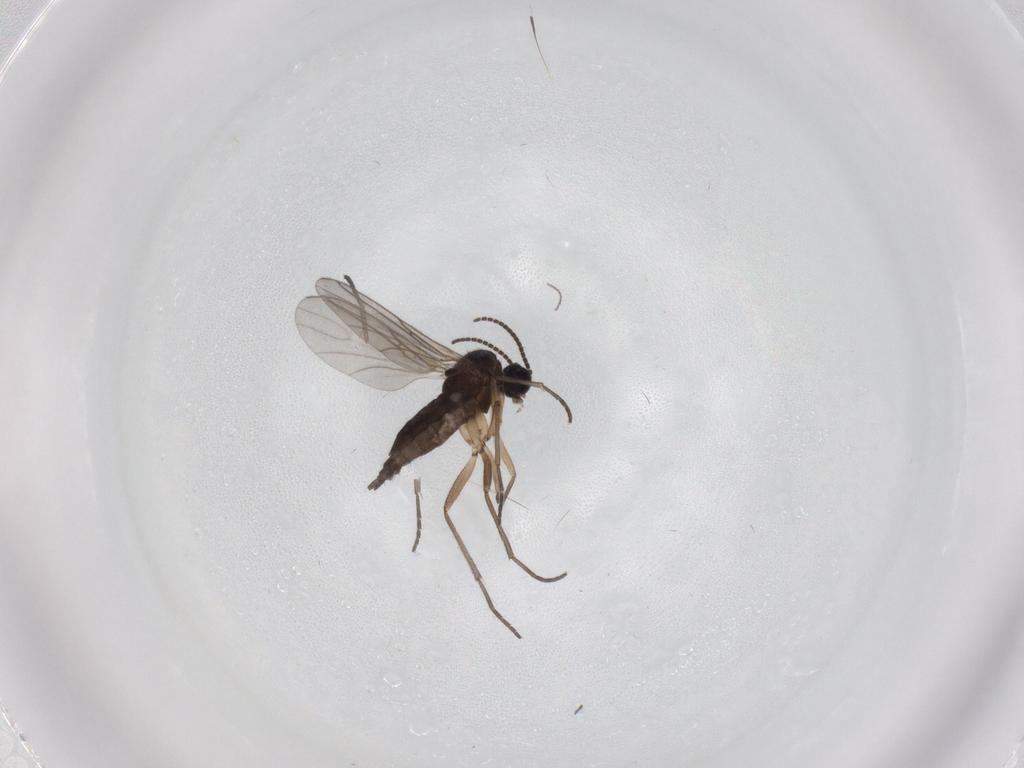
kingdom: Animalia
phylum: Arthropoda
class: Insecta
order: Diptera
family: Sciaridae
